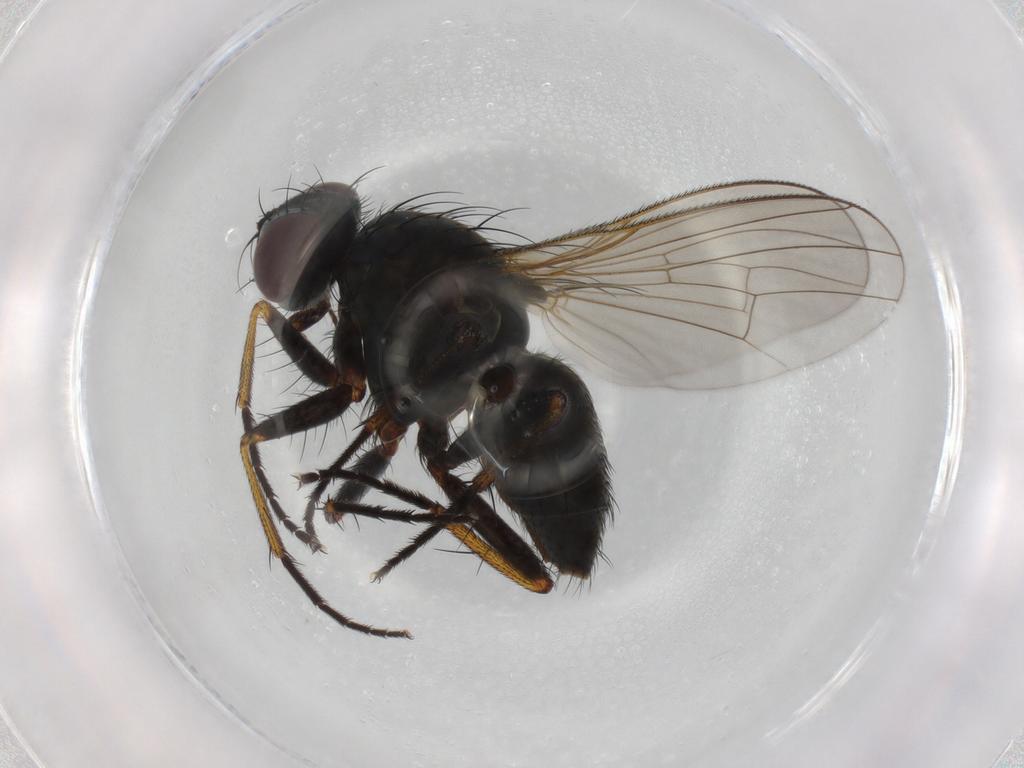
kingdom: Animalia
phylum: Arthropoda
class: Insecta
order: Diptera
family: Muscidae
